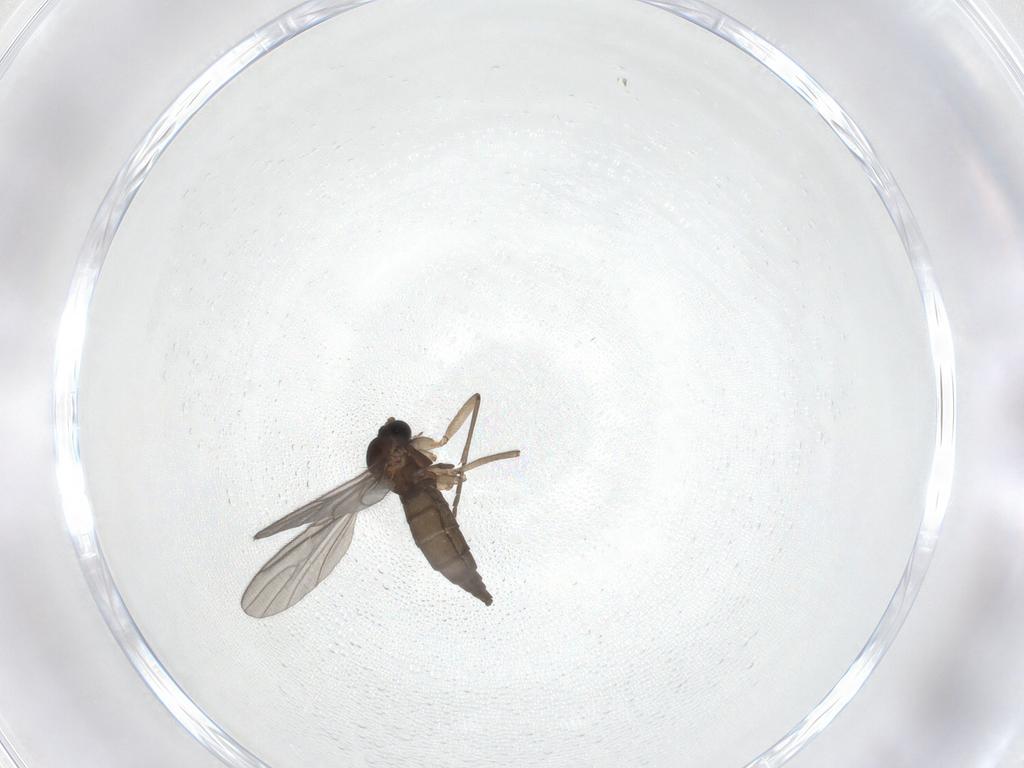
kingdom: Animalia
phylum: Arthropoda
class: Insecta
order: Diptera
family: Sciaridae
